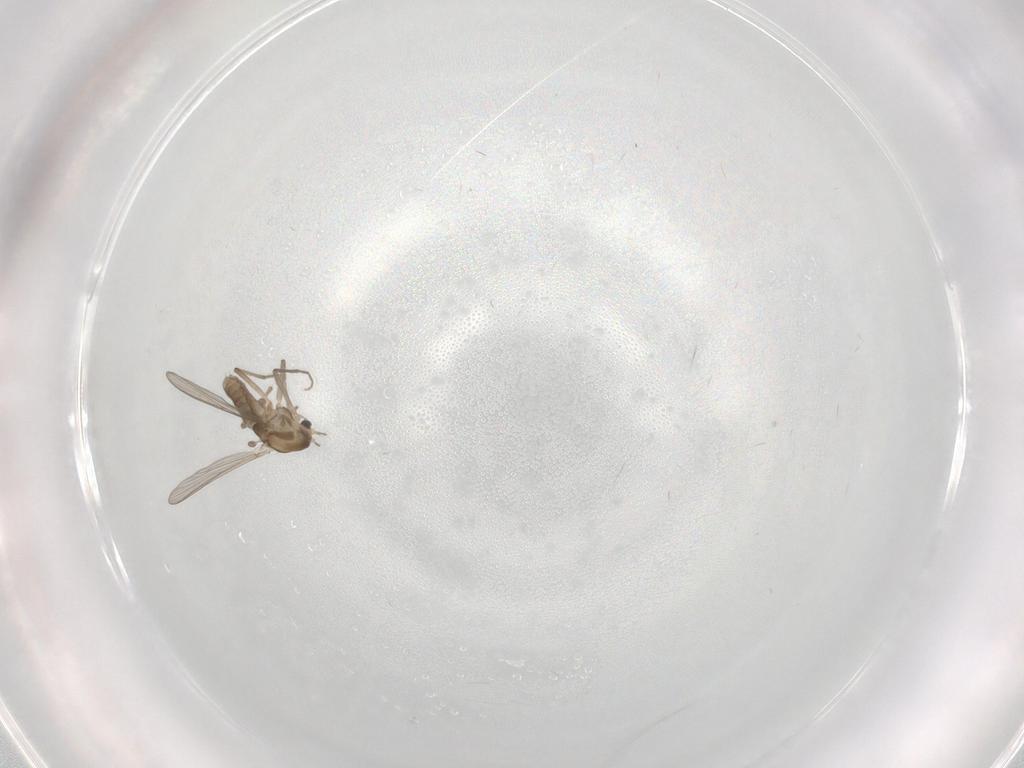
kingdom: Animalia
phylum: Arthropoda
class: Insecta
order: Diptera
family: Chironomidae
